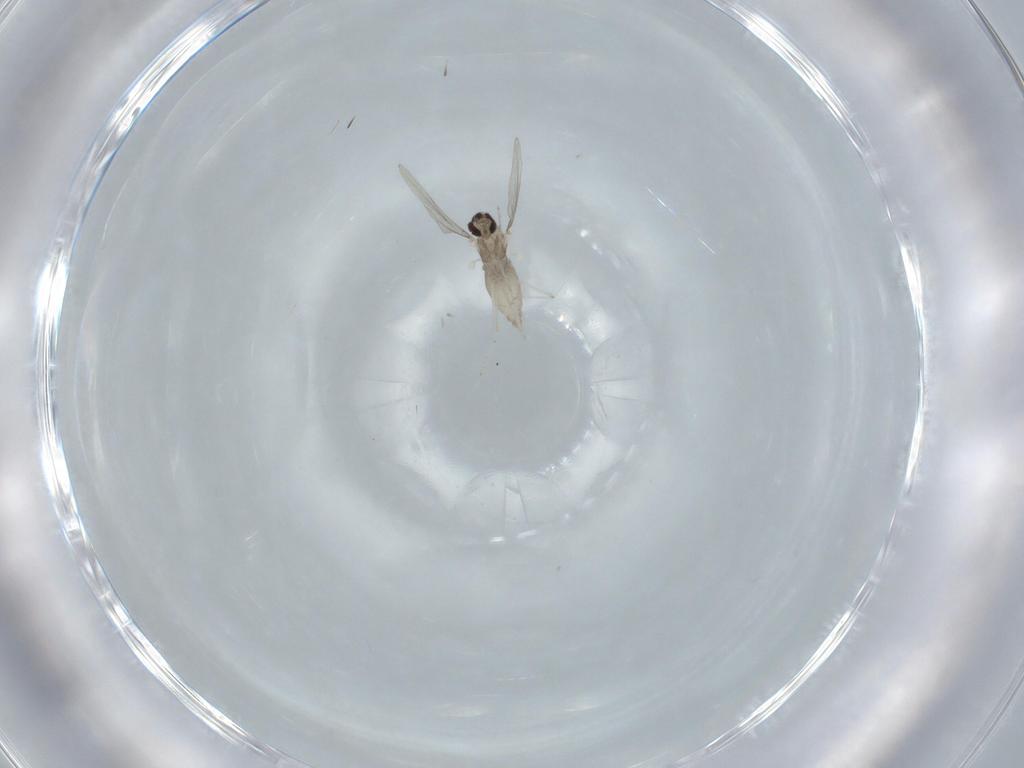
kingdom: Animalia
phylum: Arthropoda
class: Insecta
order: Diptera
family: Cecidomyiidae
